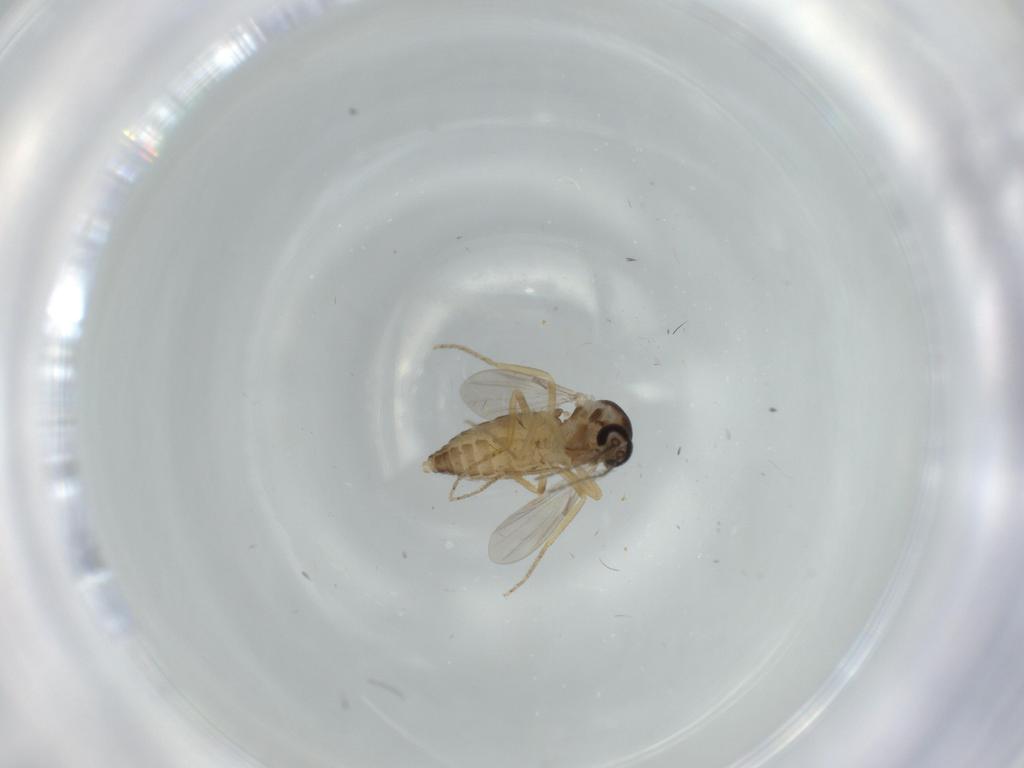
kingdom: Animalia
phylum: Arthropoda
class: Insecta
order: Diptera
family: Ceratopogonidae
